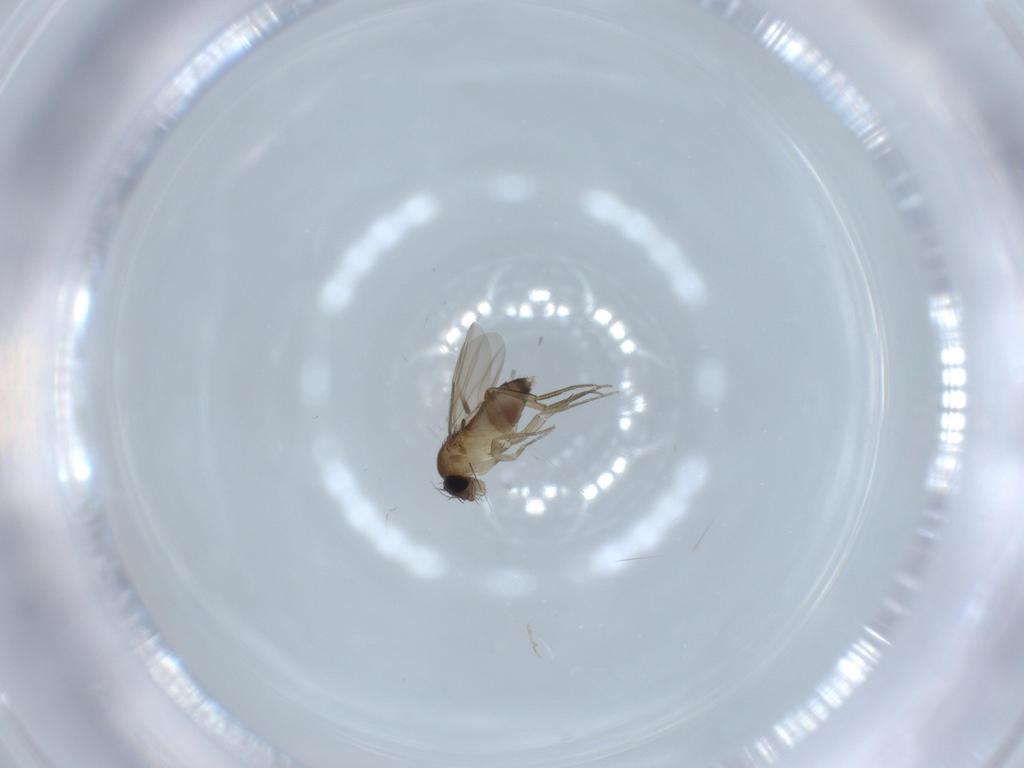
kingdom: Animalia
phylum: Arthropoda
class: Insecta
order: Diptera
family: Phoridae
